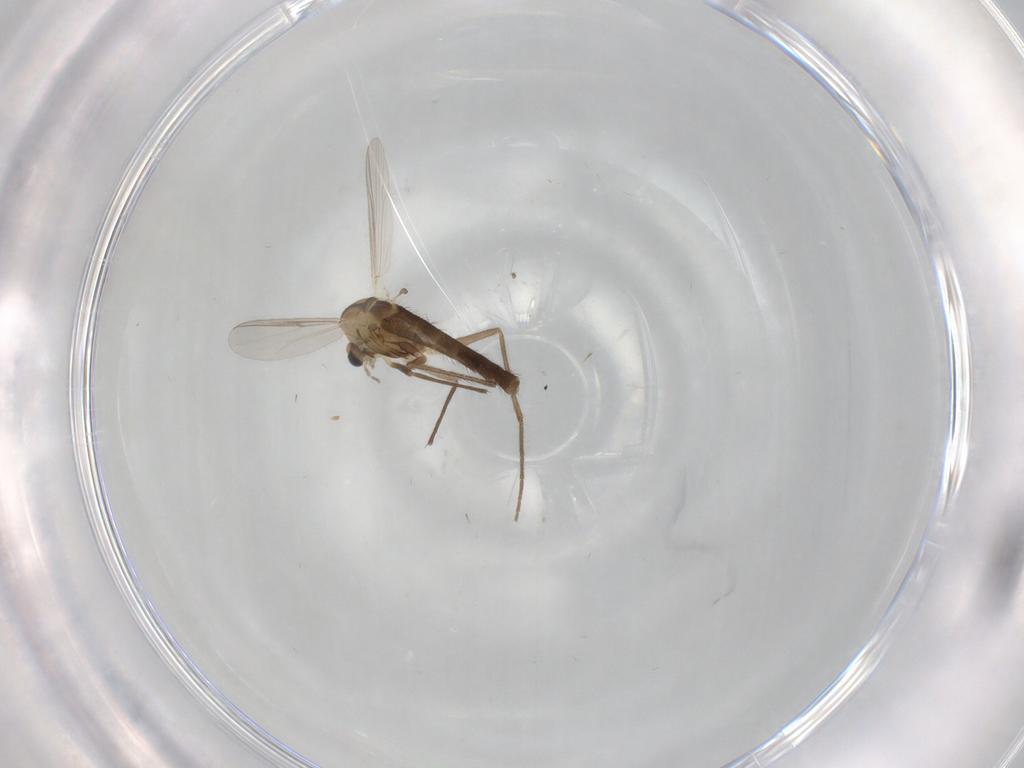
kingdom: Animalia
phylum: Arthropoda
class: Insecta
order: Diptera
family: Chironomidae
